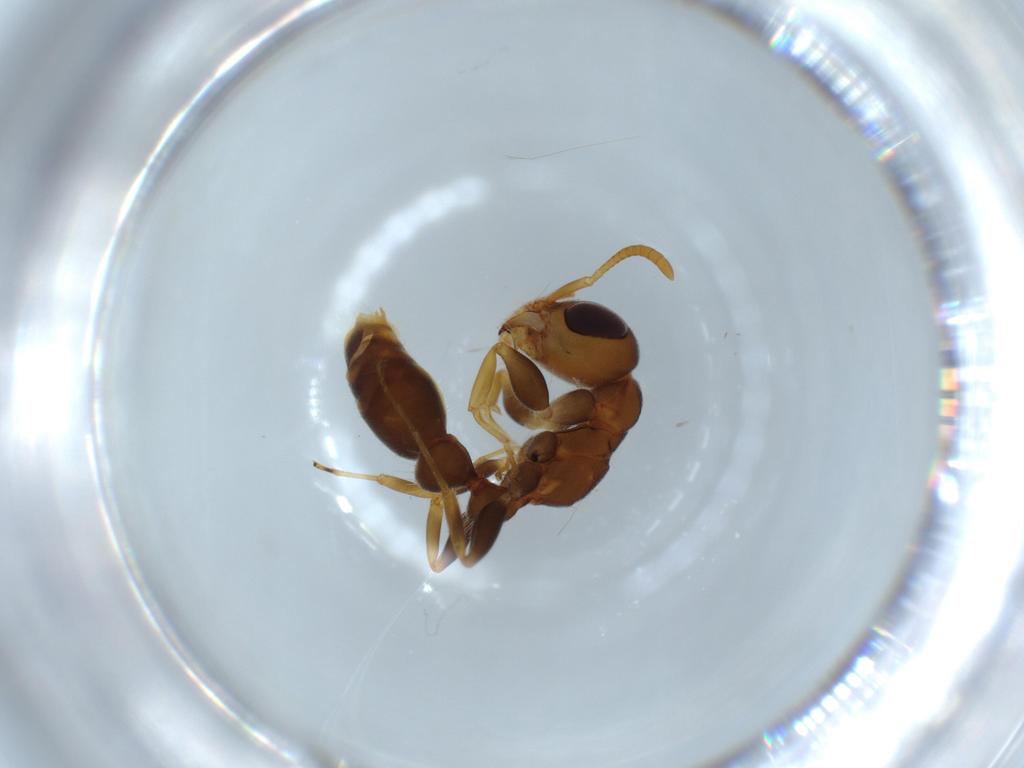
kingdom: Animalia
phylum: Arthropoda
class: Insecta
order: Hymenoptera
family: Formicidae
